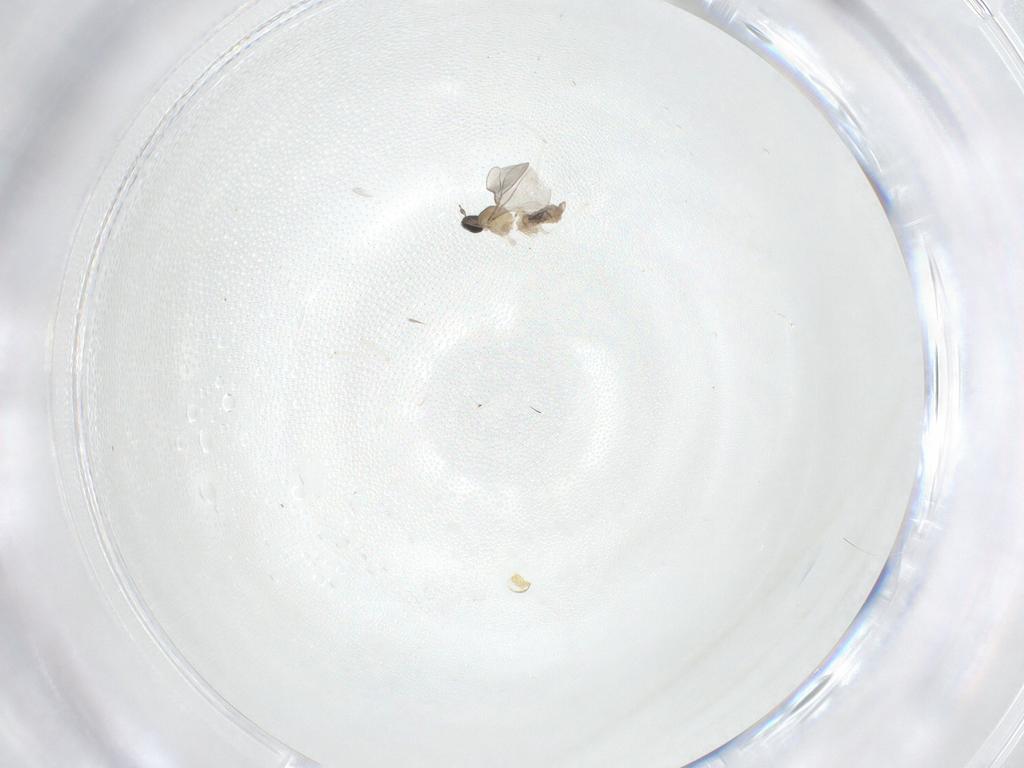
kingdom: Animalia
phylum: Arthropoda
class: Insecta
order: Diptera
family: Cecidomyiidae
